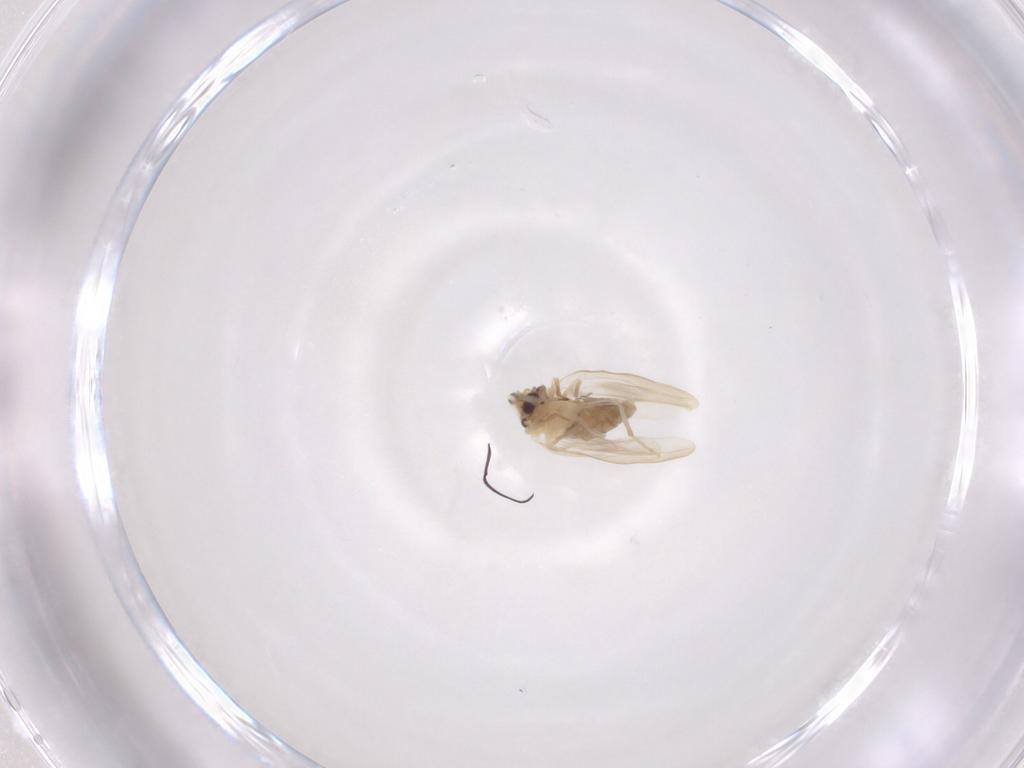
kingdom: Animalia
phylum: Arthropoda
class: Insecta
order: Hemiptera
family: Aleyrodidae
